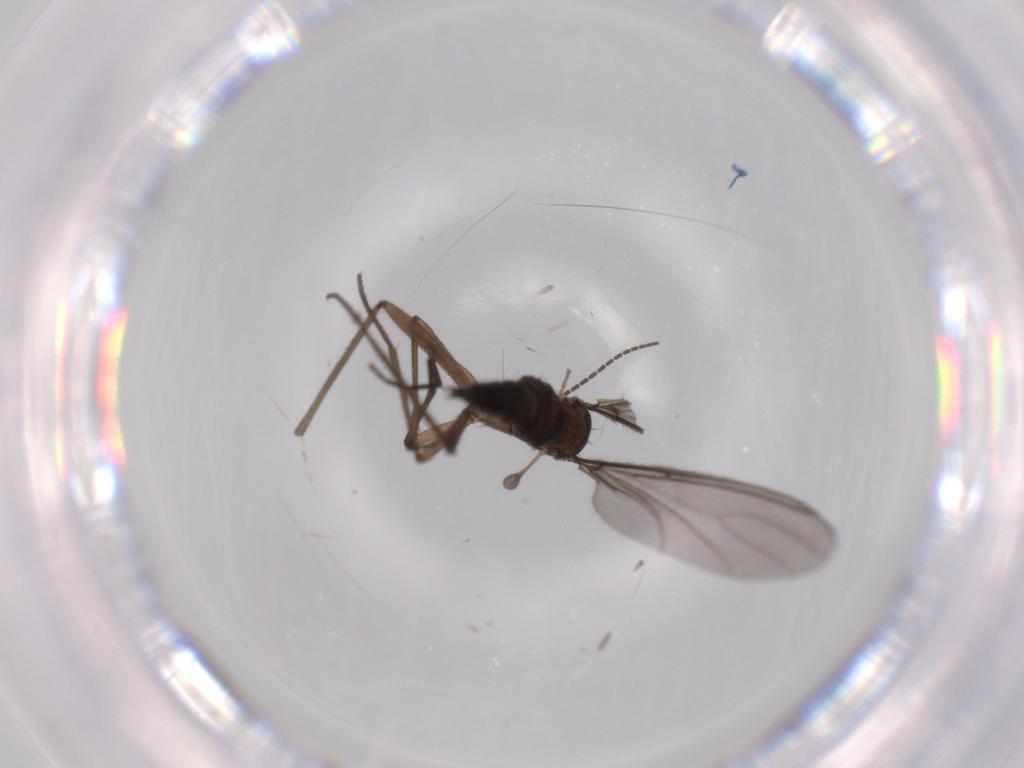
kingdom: Animalia
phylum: Arthropoda
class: Insecta
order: Diptera
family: Sciaridae
